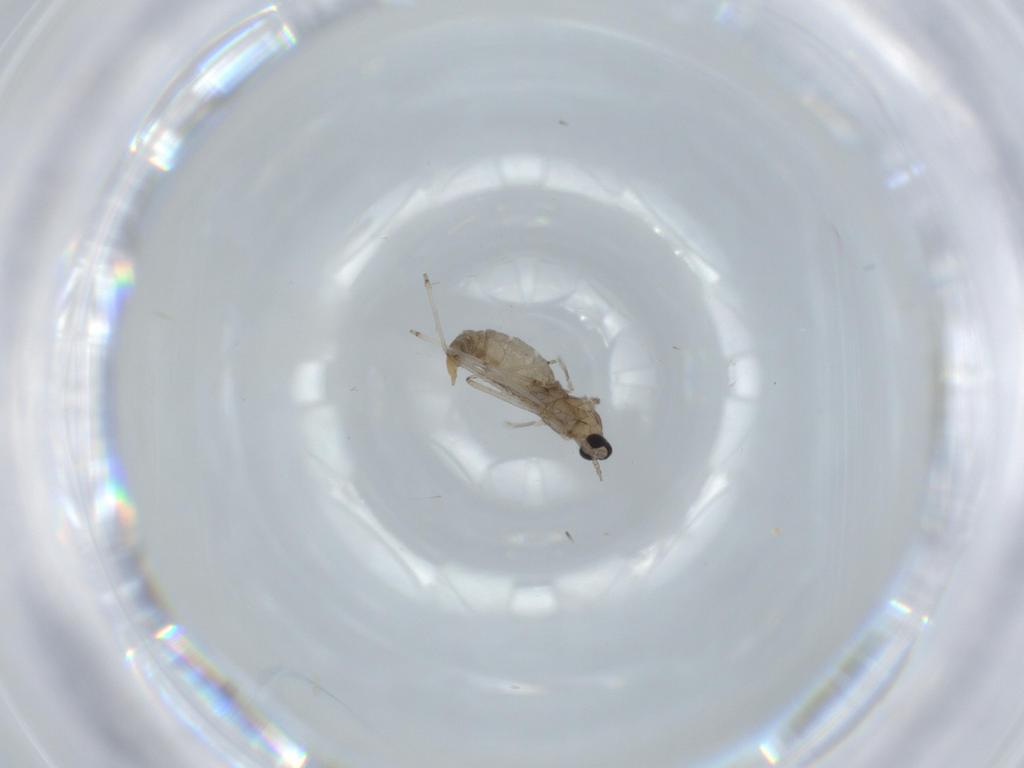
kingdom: Animalia
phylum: Arthropoda
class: Insecta
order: Diptera
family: Cecidomyiidae
